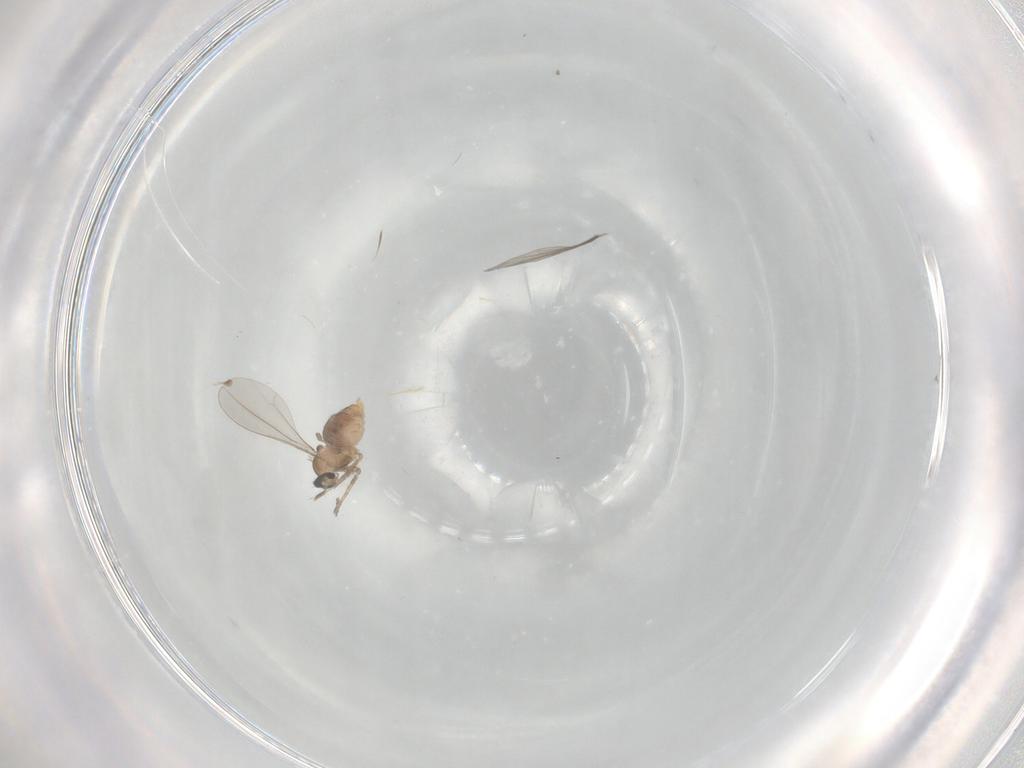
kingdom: Animalia
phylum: Arthropoda
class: Insecta
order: Diptera
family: Cecidomyiidae
